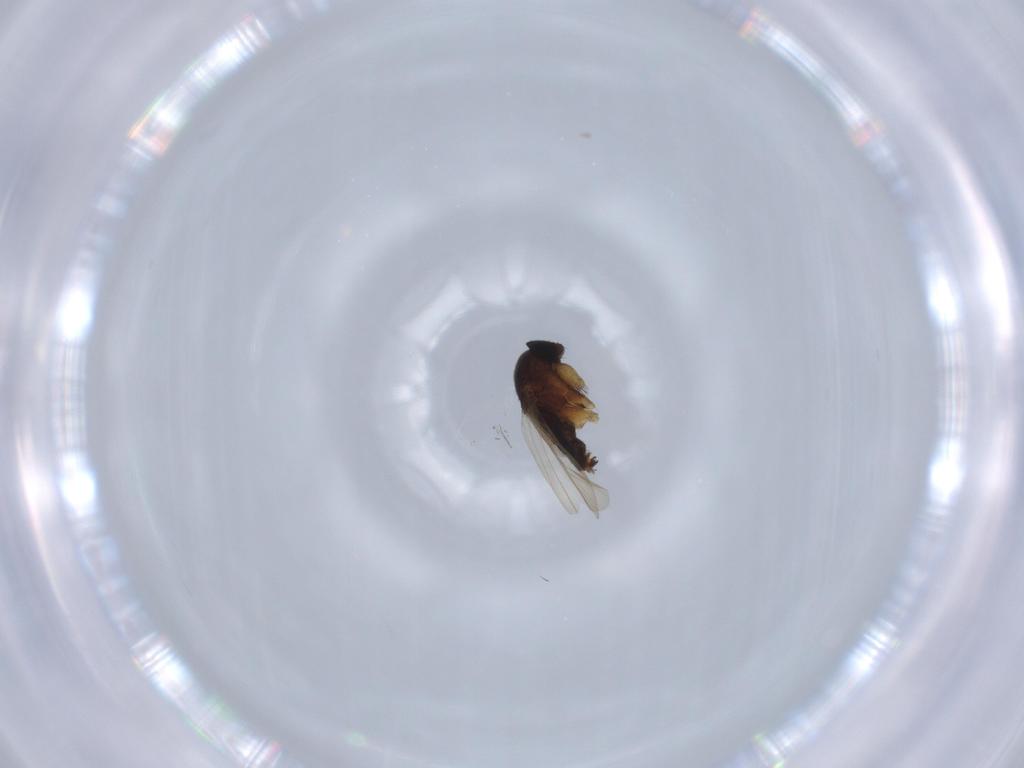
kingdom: Animalia
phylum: Arthropoda
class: Insecta
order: Diptera
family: Phoridae
